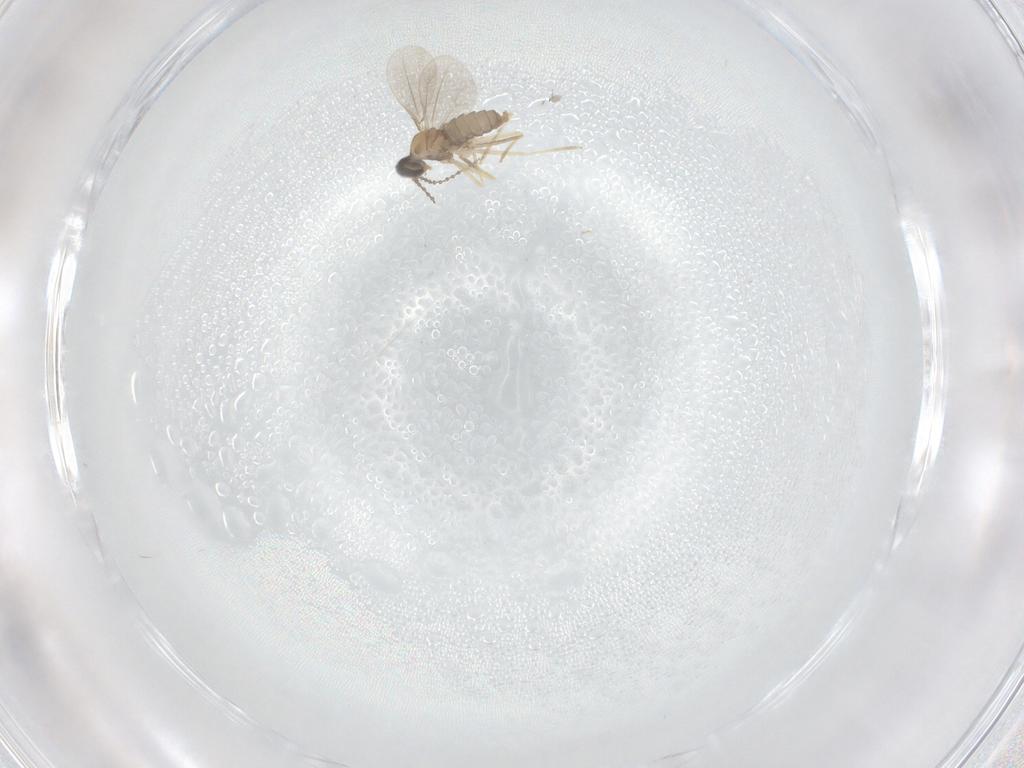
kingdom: Animalia
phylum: Arthropoda
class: Insecta
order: Diptera
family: Cecidomyiidae
